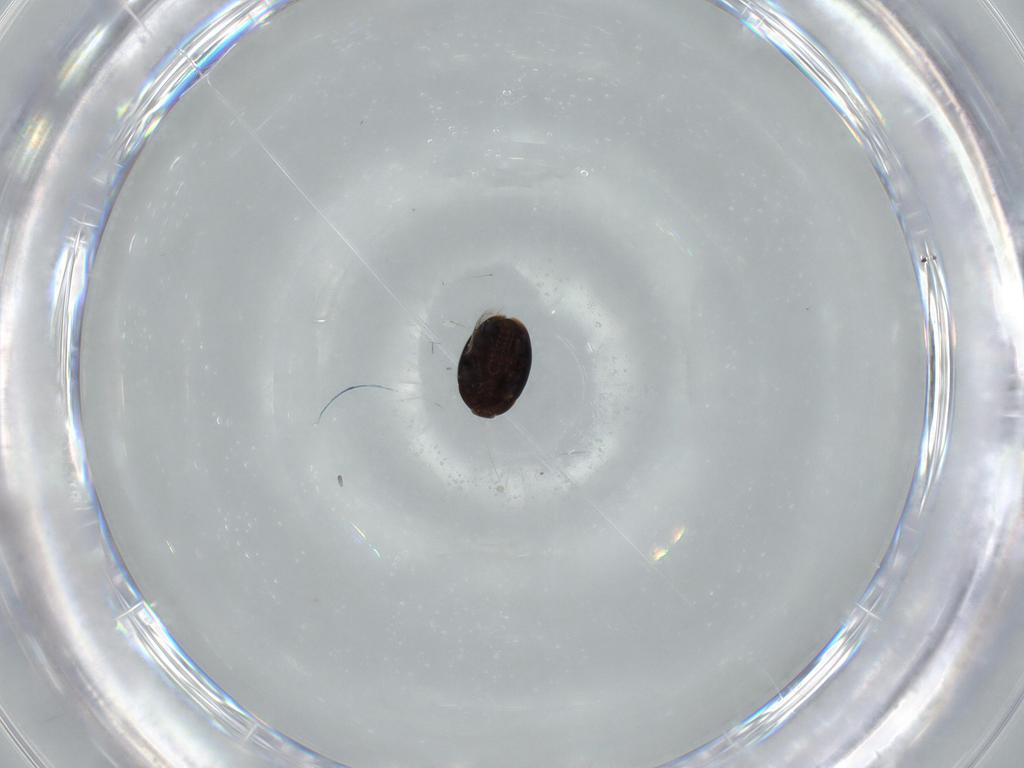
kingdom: Animalia
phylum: Arthropoda
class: Insecta
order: Coleoptera
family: Corylophidae
